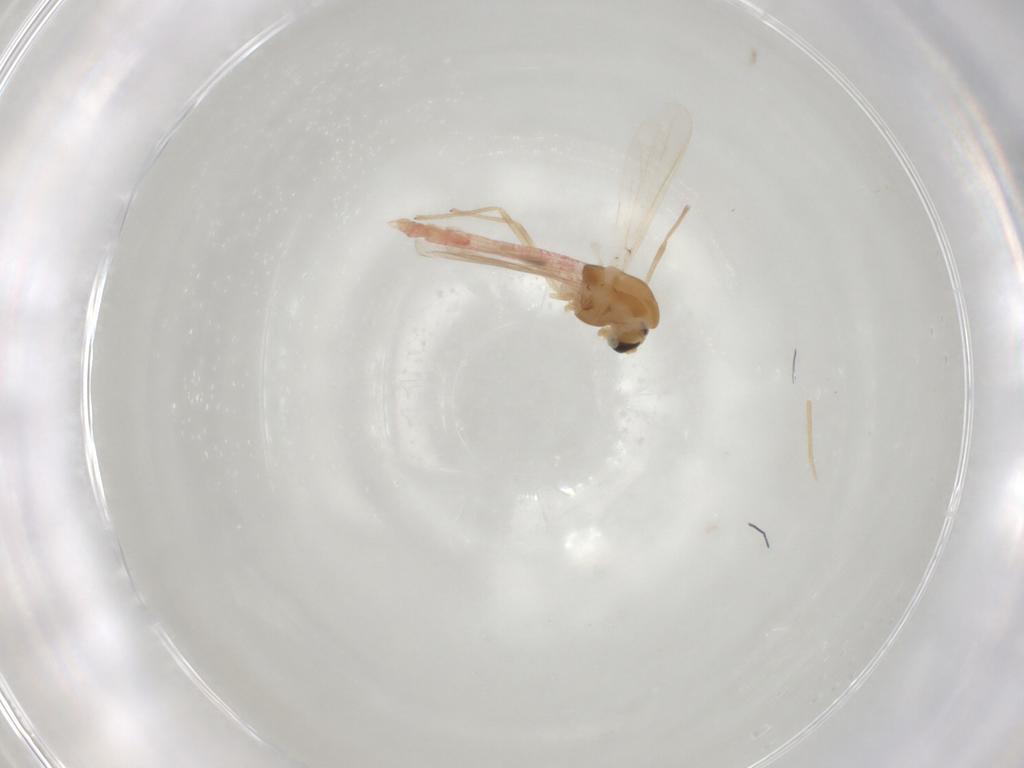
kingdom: Animalia
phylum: Arthropoda
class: Insecta
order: Diptera
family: Chironomidae
